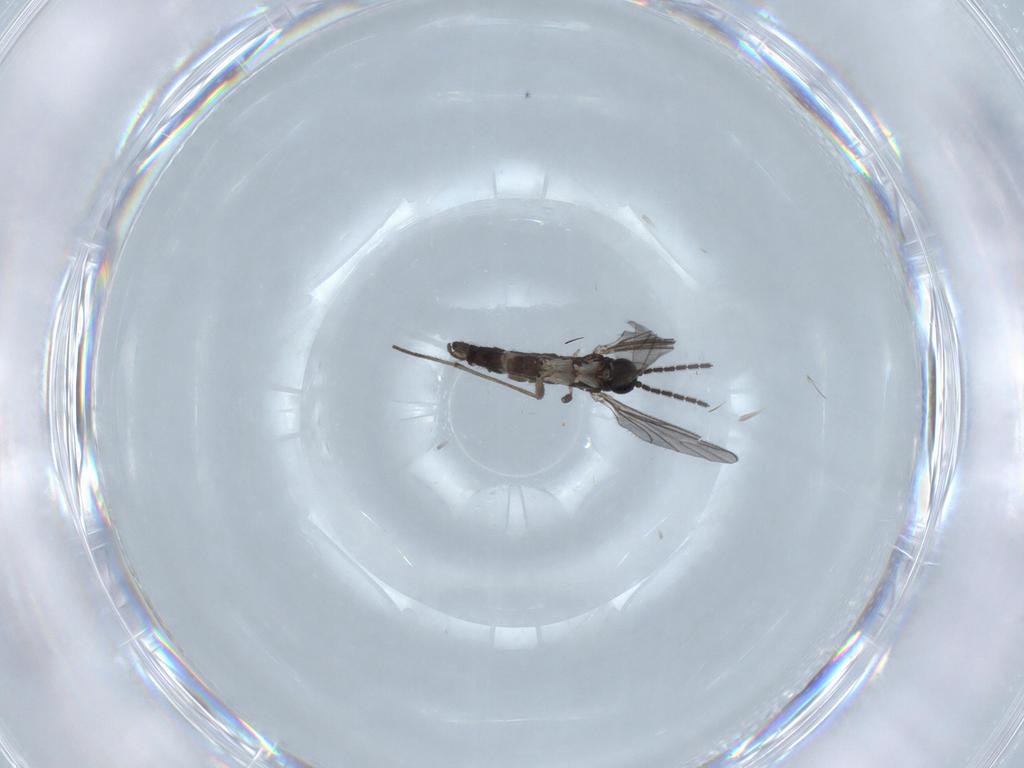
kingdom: Animalia
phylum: Arthropoda
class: Insecta
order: Diptera
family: Sciaridae
